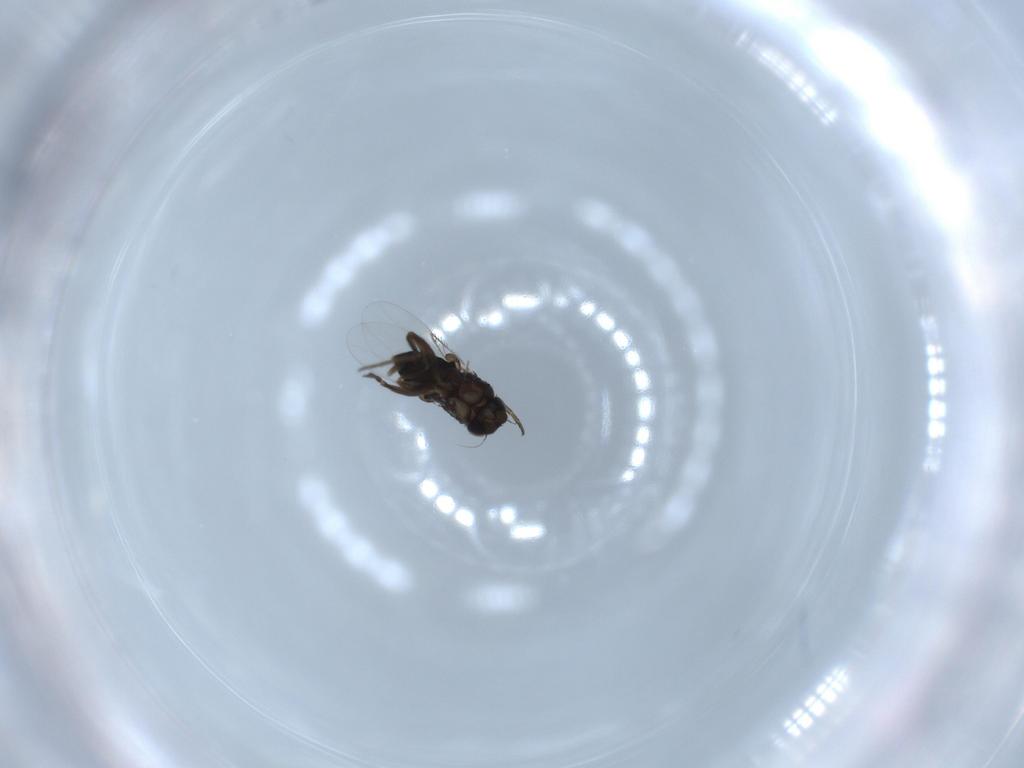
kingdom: Animalia
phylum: Arthropoda
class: Insecta
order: Diptera
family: Phoridae
